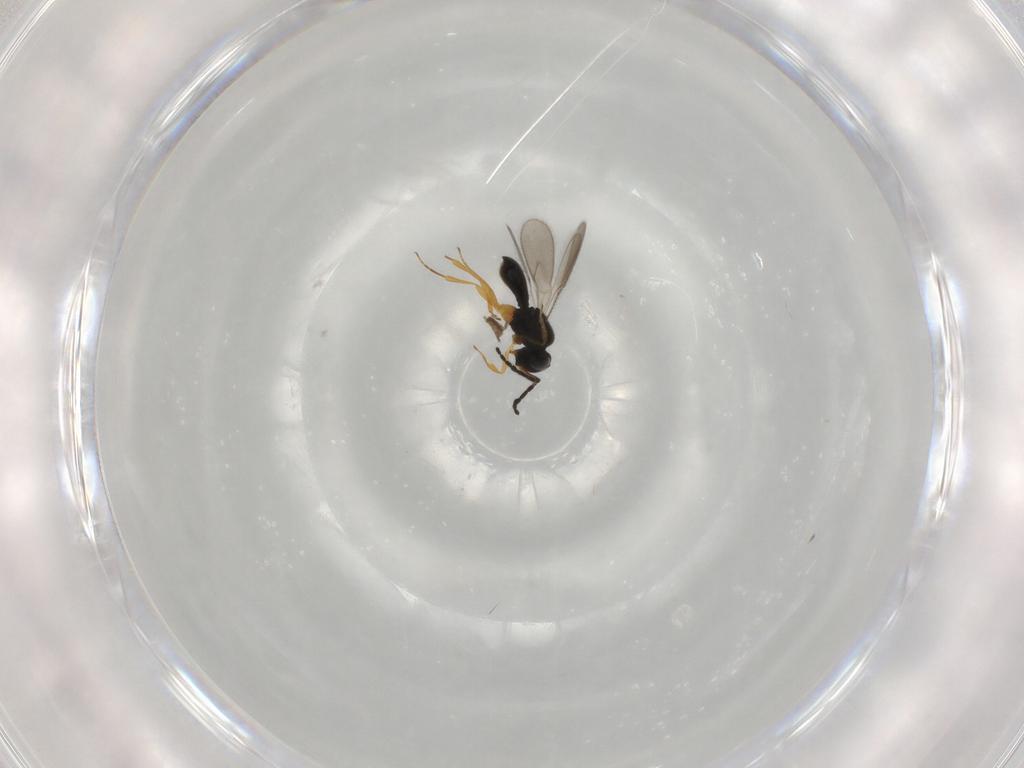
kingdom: Animalia
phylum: Arthropoda
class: Insecta
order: Hymenoptera
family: Scelionidae
